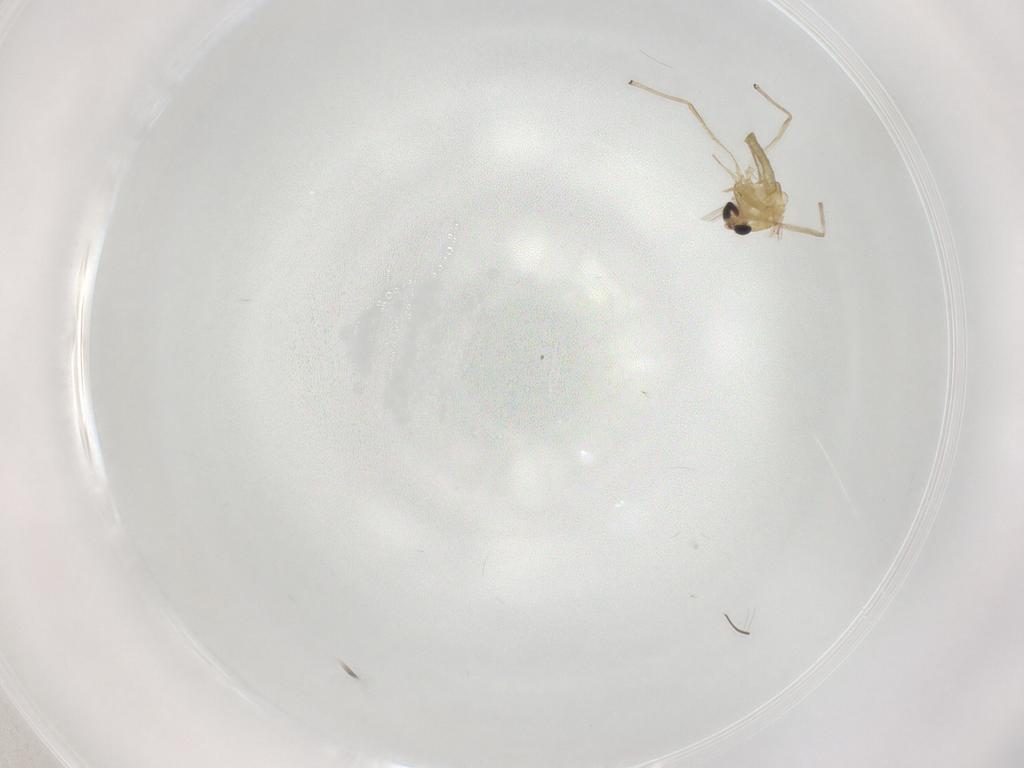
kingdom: Animalia
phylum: Arthropoda
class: Insecta
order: Diptera
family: Chironomidae
